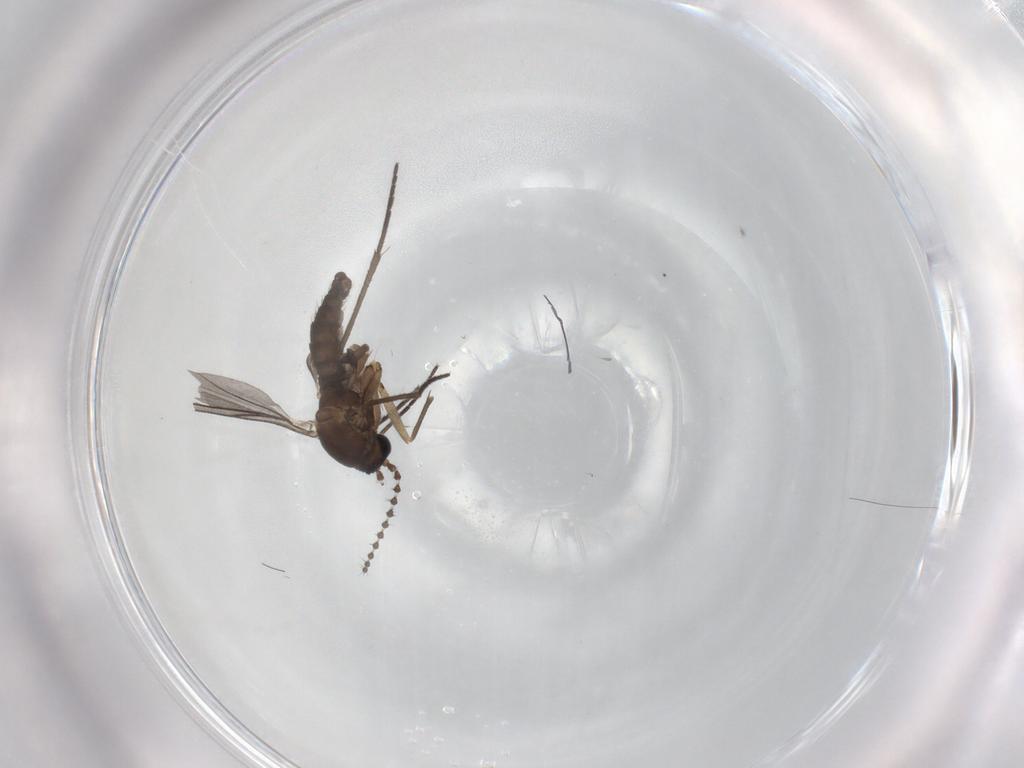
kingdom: Animalia
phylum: Arthropoda
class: Insecta
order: Diptera
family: Sciaridae
